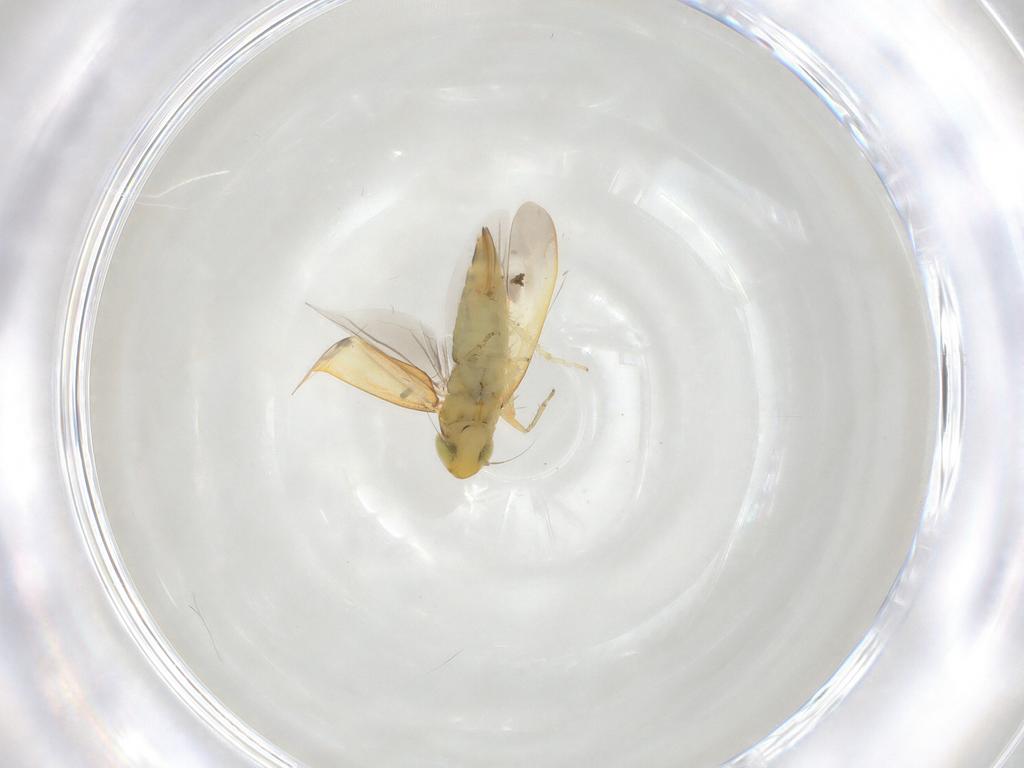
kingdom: Animalia
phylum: Arthropoda
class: Insecta
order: Hemiptera
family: Cicadellidae
